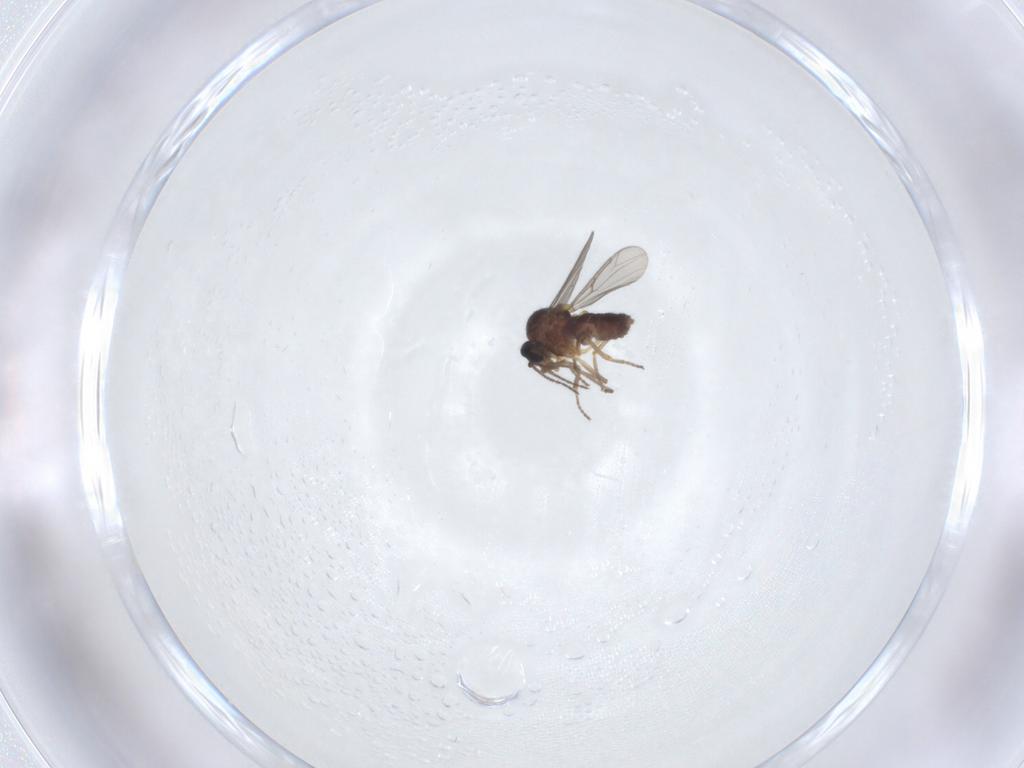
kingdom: Animalia
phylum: Arthropoda
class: Insecta
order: Diptera
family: Ceratopogonidae
